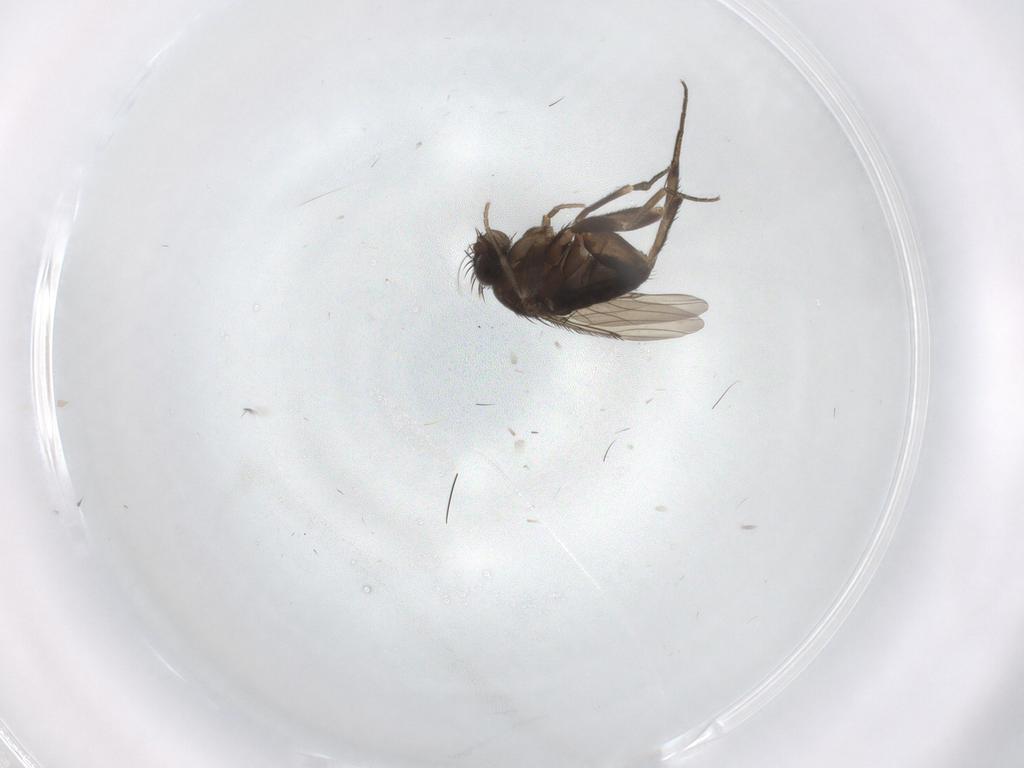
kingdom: Animalia
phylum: Arthropoda
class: Insecta
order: Diptera
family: Phoridae
